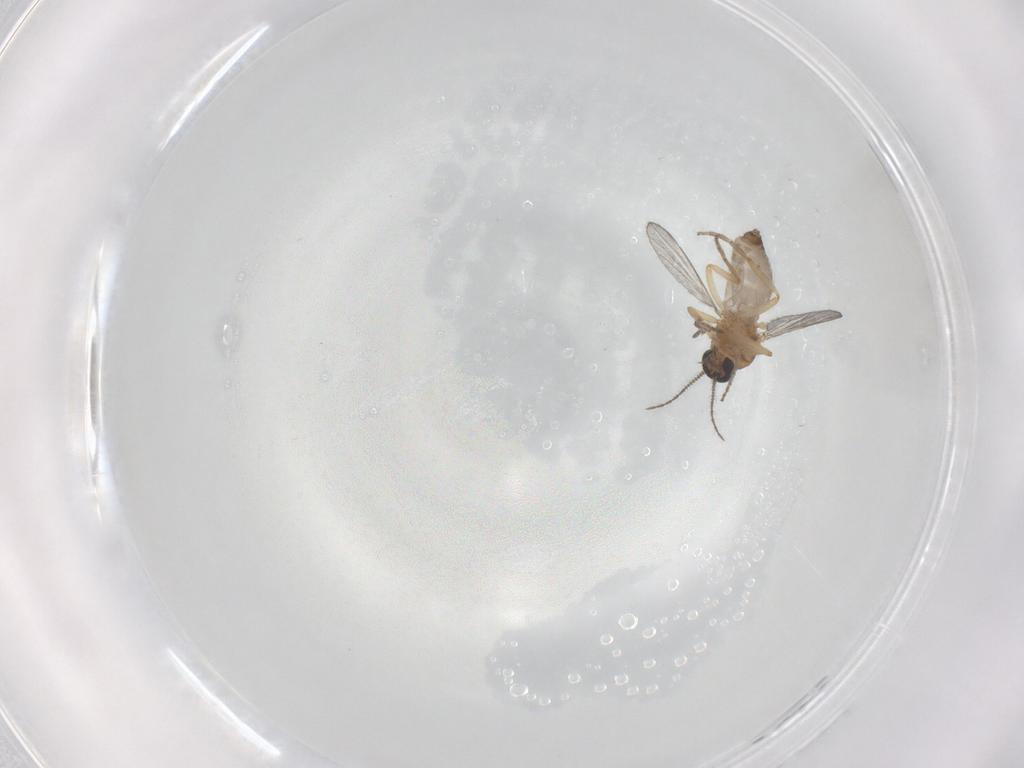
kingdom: Animalia
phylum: Arthropoda
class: Insecta
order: Diptera
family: Ceratopogonidae
